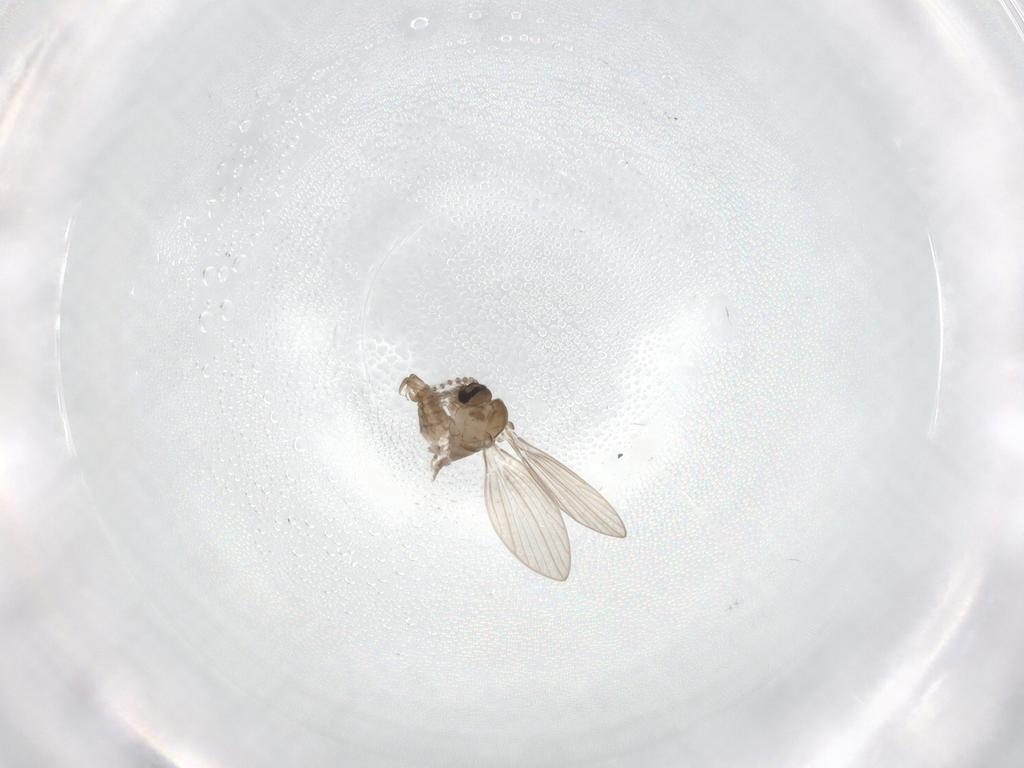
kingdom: Animalia
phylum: Arthropoda
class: Insecta
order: Diptera
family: Psychodidae
